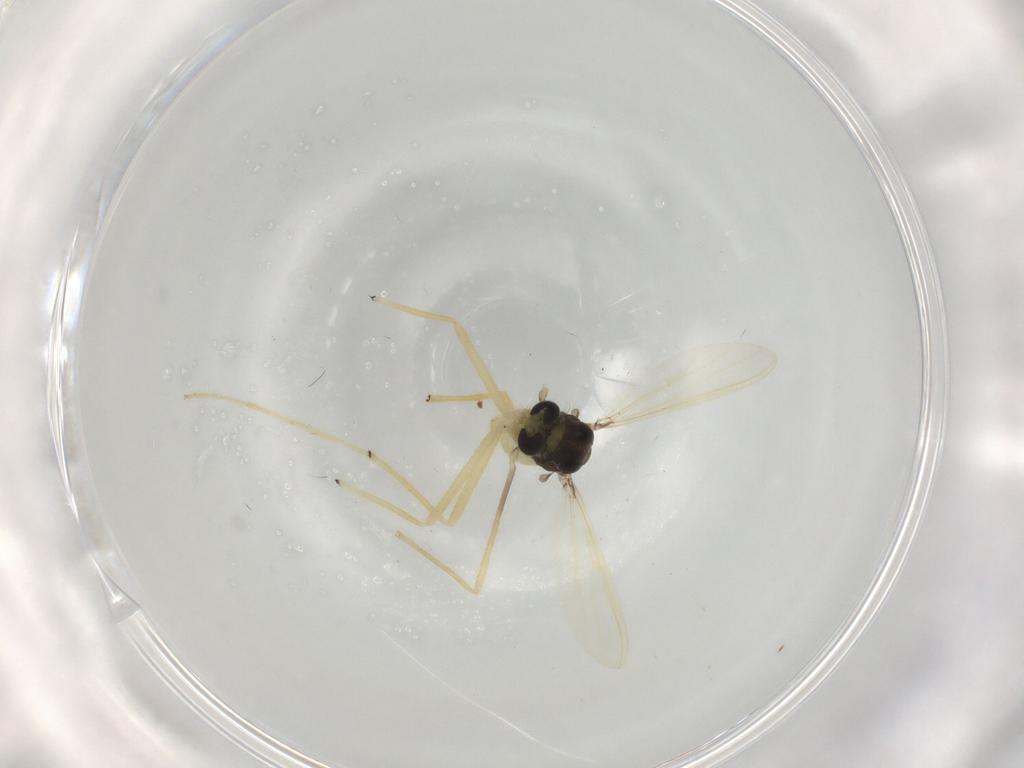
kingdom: Animalia
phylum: Arthropoda
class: Insecta
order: Diptera
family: Chironomidae
